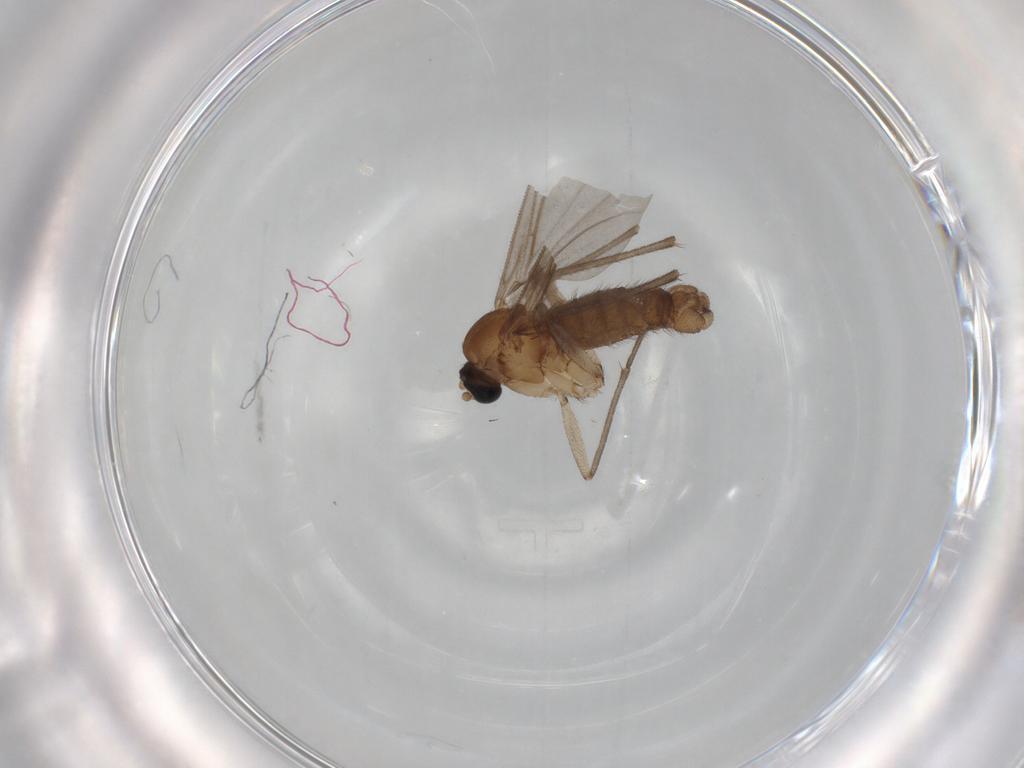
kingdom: Animalia
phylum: Arthropoda
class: Insecta
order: Diptera
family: Sciaridae
